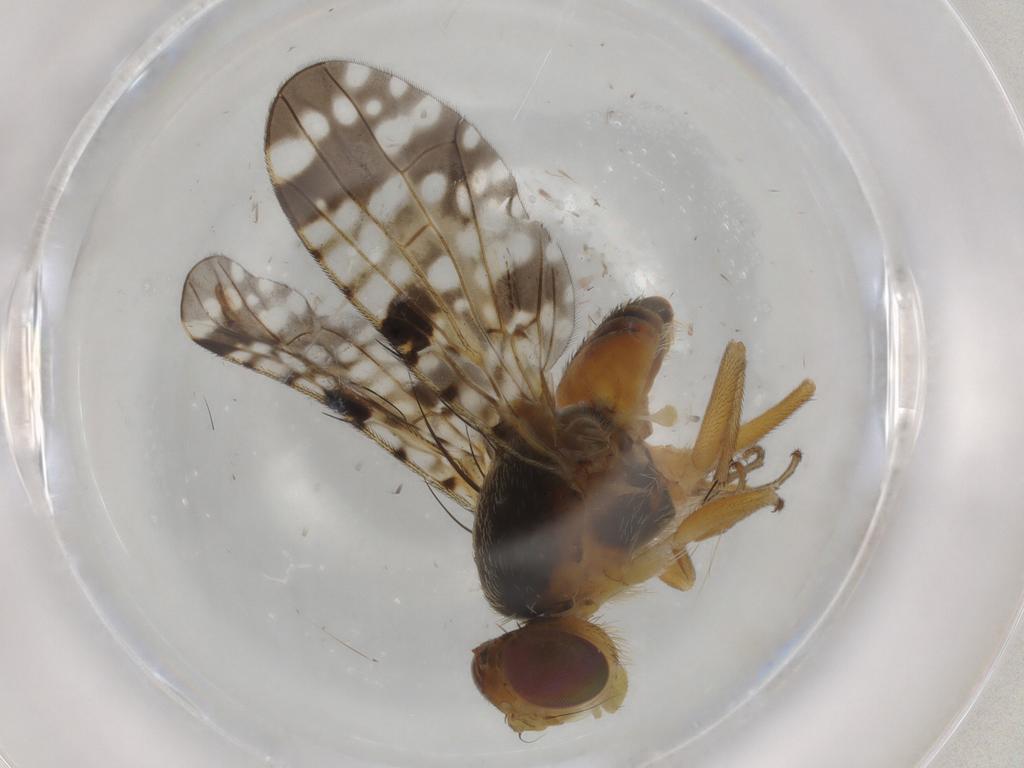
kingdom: Animalia
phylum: Arthropoda
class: Insecta
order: Diptera
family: Tephritidae
